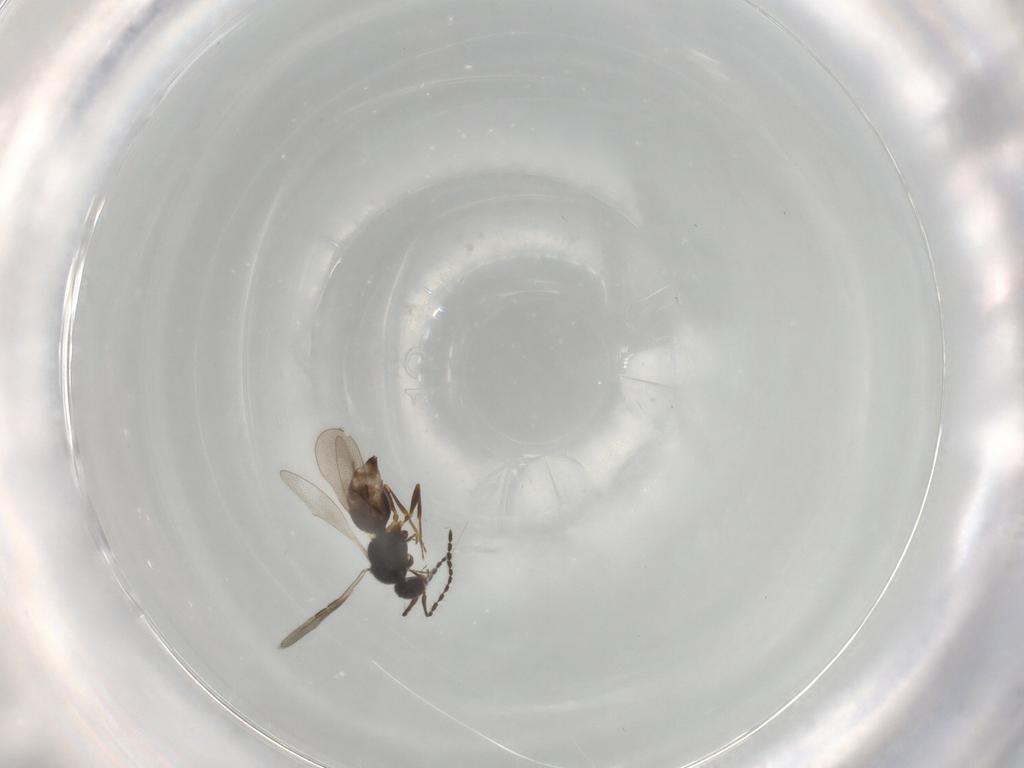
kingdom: Animalia
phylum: Arthropoda
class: Insecta
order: Hymenoptera
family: Ceraphronidae
